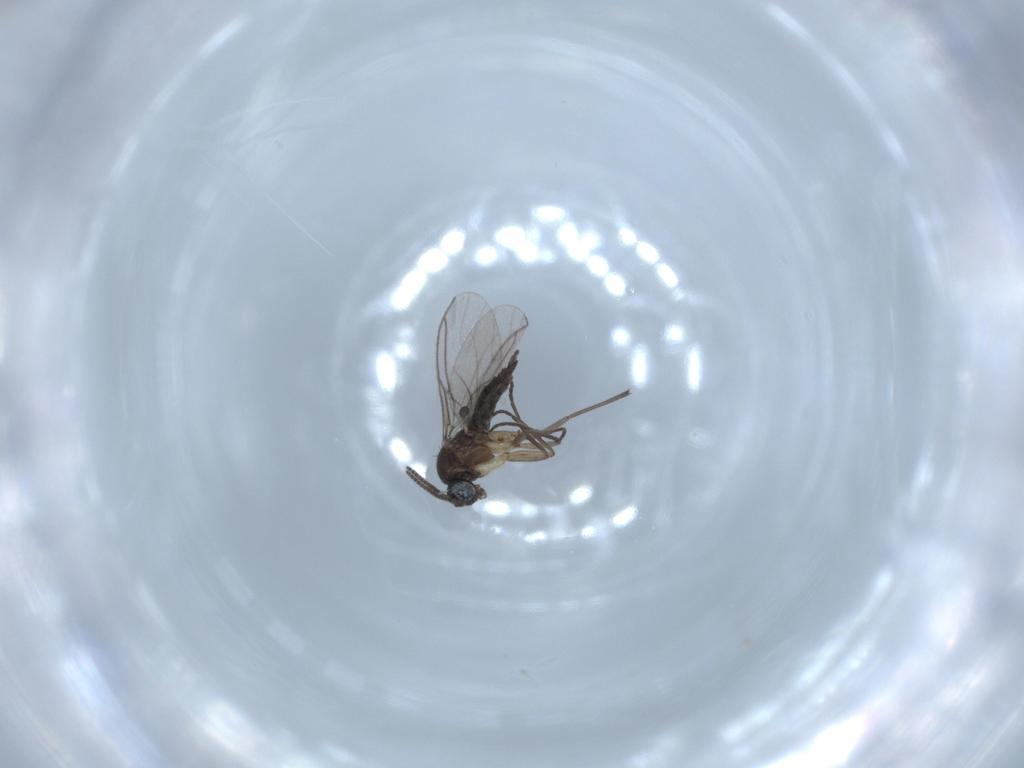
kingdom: Animalia
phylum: Arthropoda
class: Insecta
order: Diptera
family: Sciaridae
